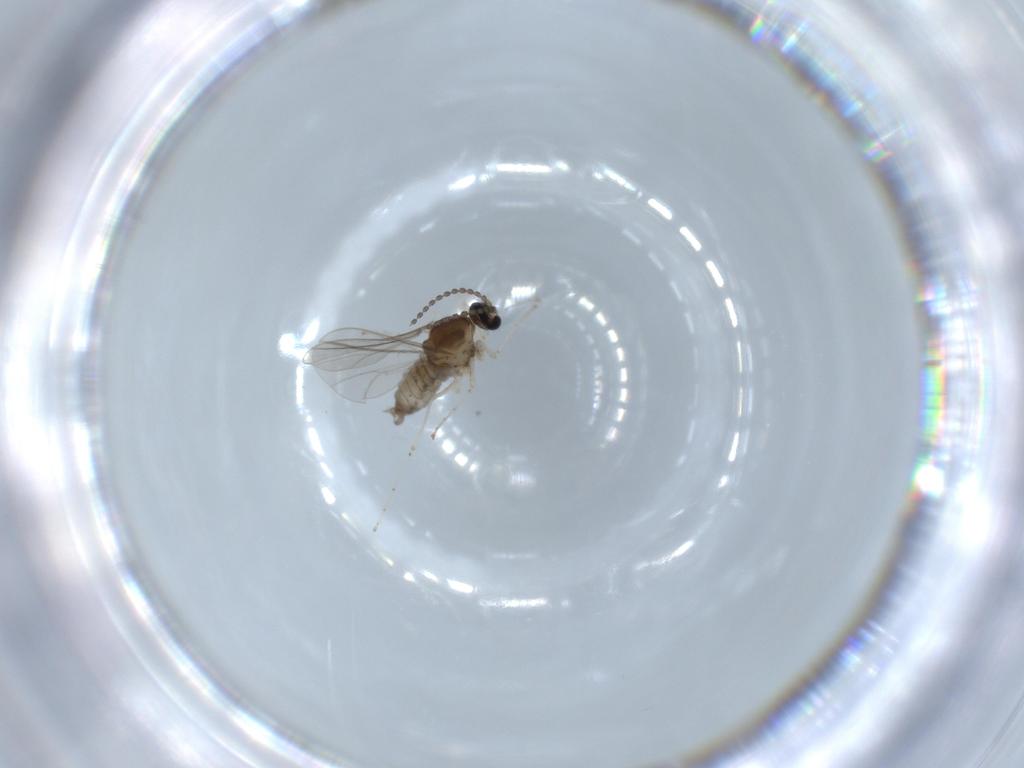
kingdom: Animalia
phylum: Arthropoda
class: Insecta
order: Diptera
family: Cecidomyiidae
